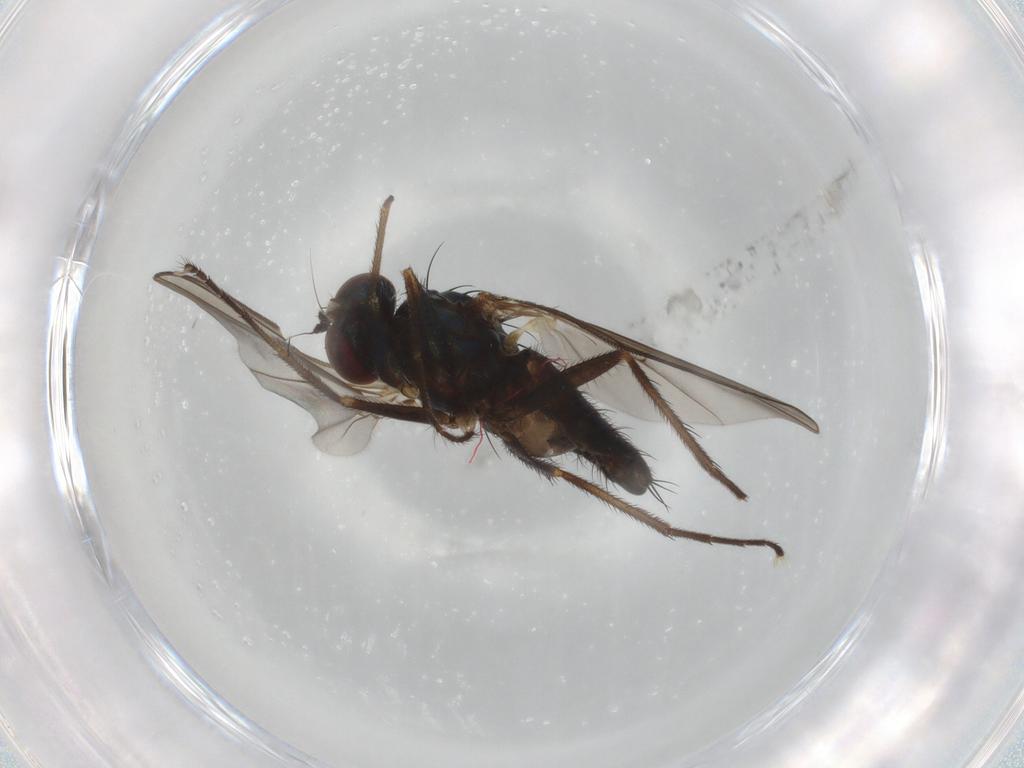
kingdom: Animalia
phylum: Arthropoda
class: Insecta
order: Diptera
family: Dolichopodidae
